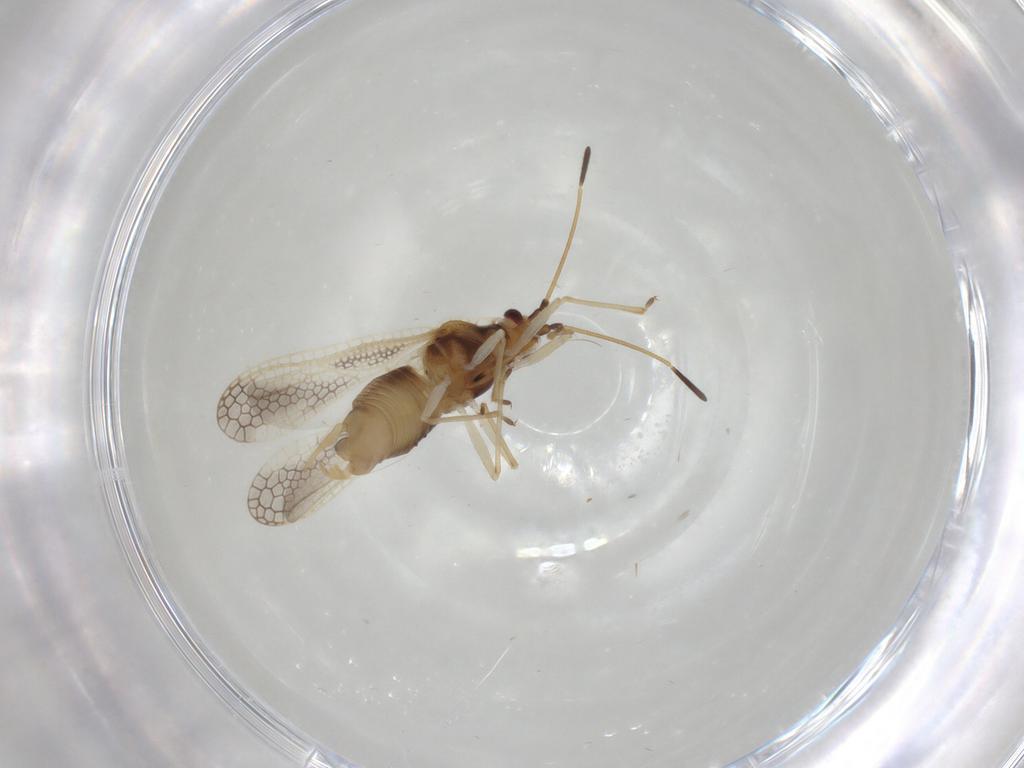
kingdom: Animalia
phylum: Arthropoda
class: Insecta
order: Hemiptera
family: Tingidae
